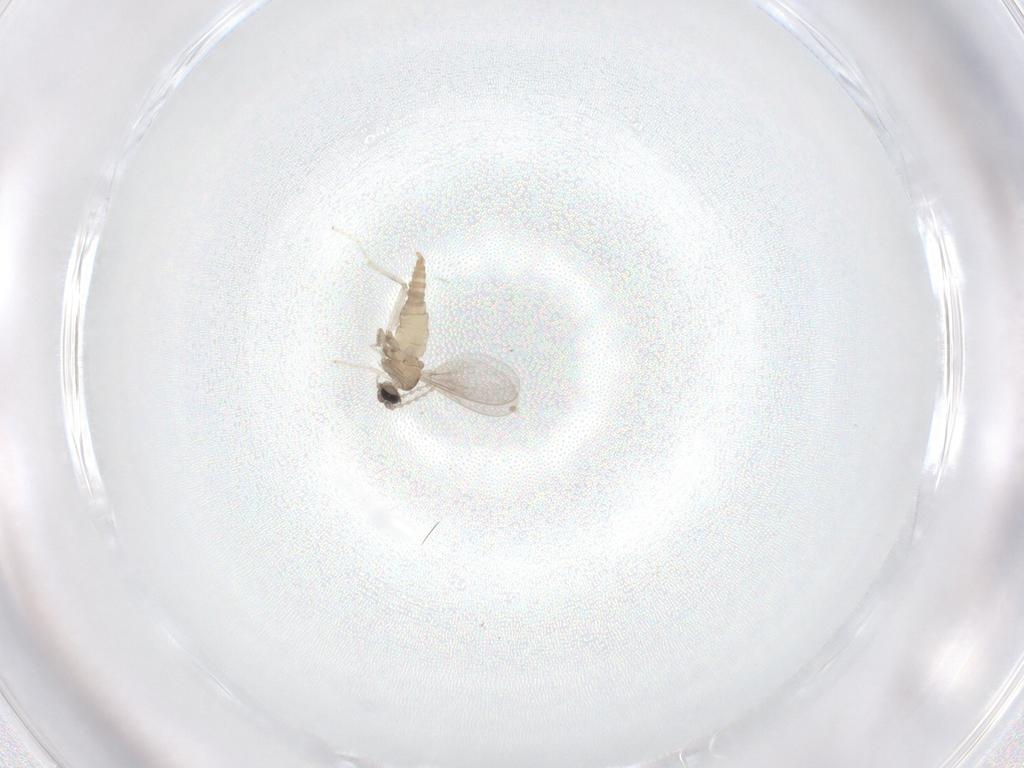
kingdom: Animalia
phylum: Arthropoda
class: Insecta
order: Diptera
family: Cecidomyiidae
